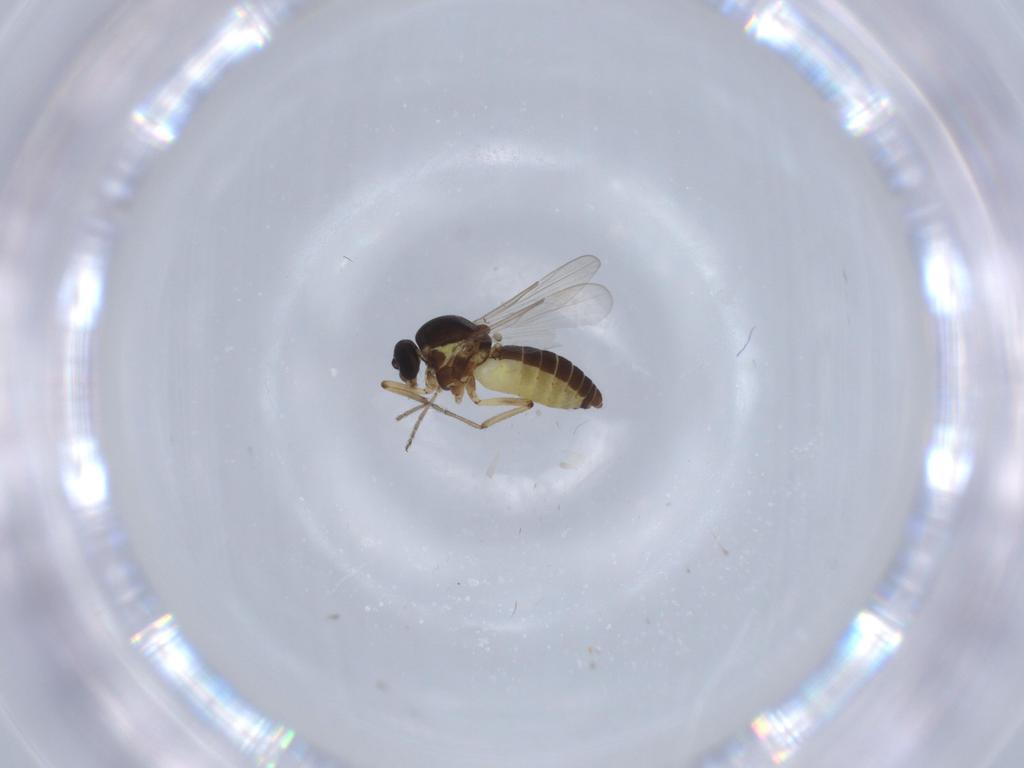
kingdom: Animalia
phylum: Arthropoda
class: Insecta
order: Diptera
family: Ceratopogonidae
